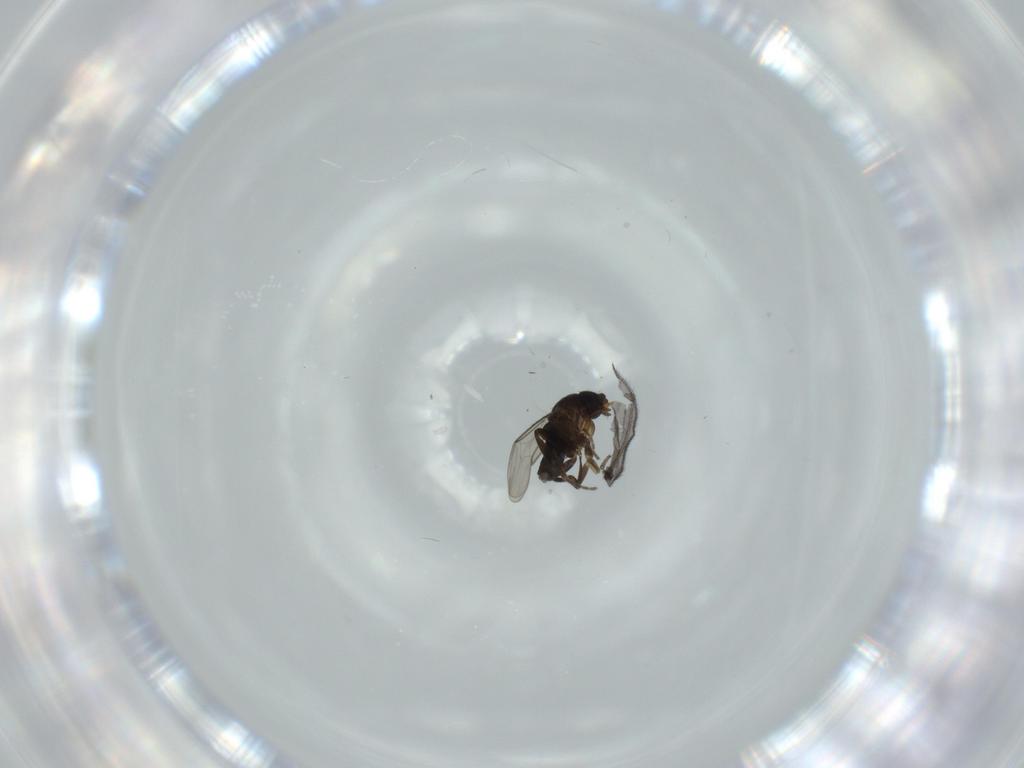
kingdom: Animalia
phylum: Arthropoda
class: Insecta
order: Diptera
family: Phoridae
